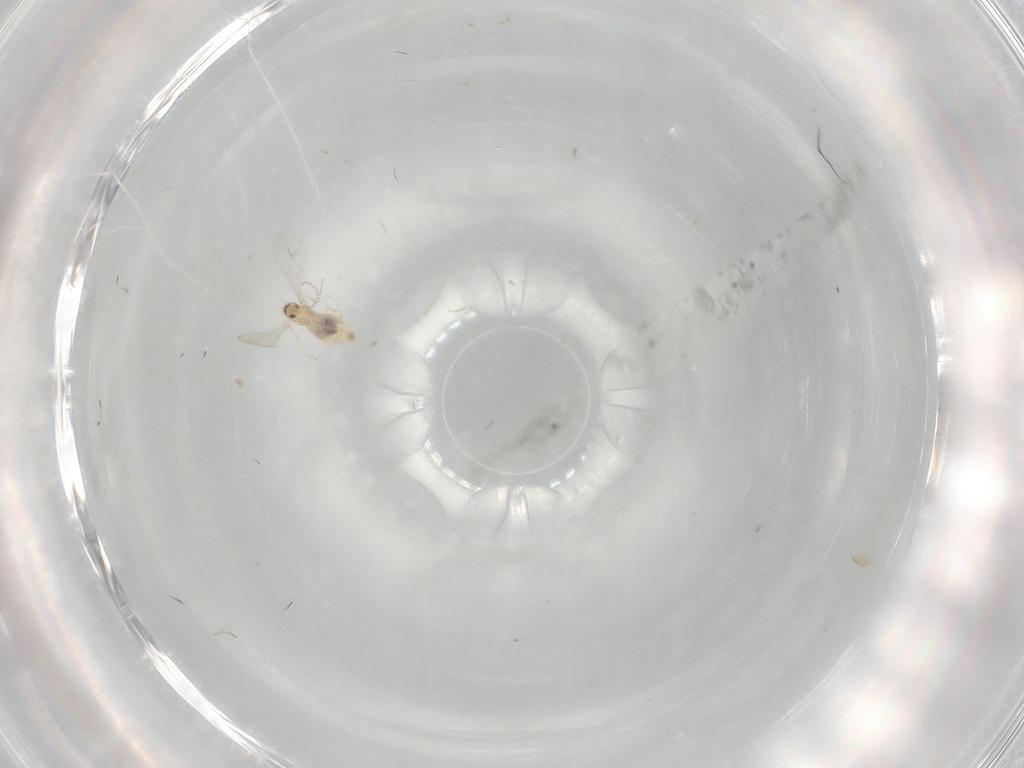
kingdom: Animalia
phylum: Arthropoda
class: Insecta
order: Diptera
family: Cecidomyiidae
